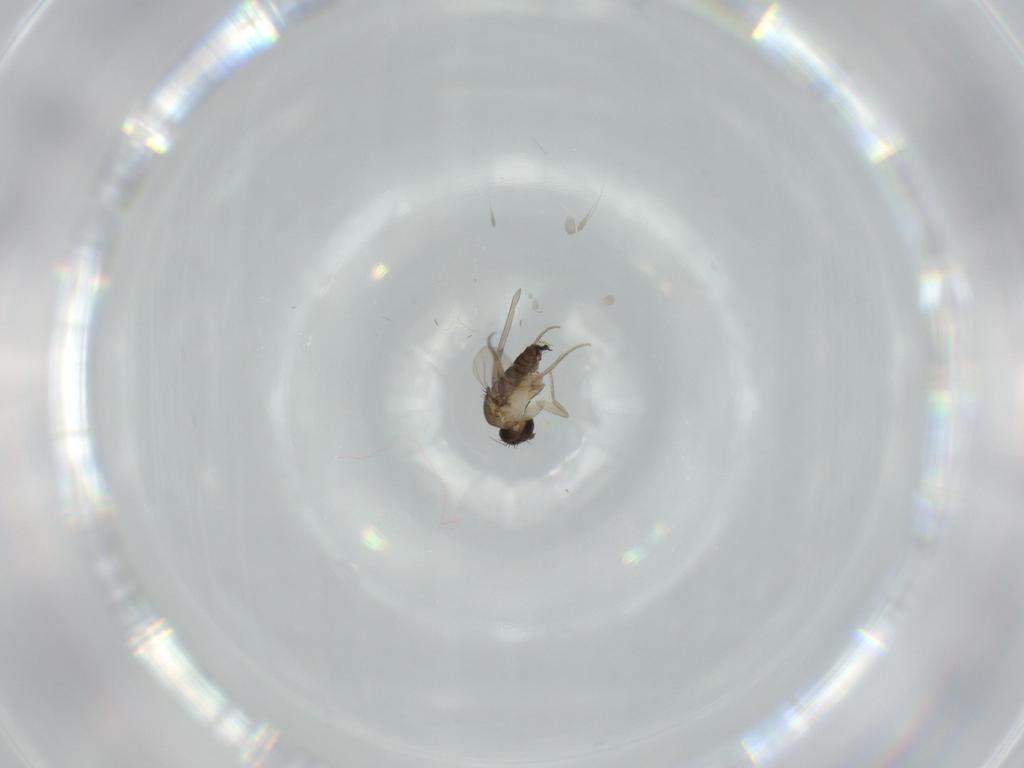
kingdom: Animalia
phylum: Arthropoda
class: Insecta
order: Diptera
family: Phoridae
